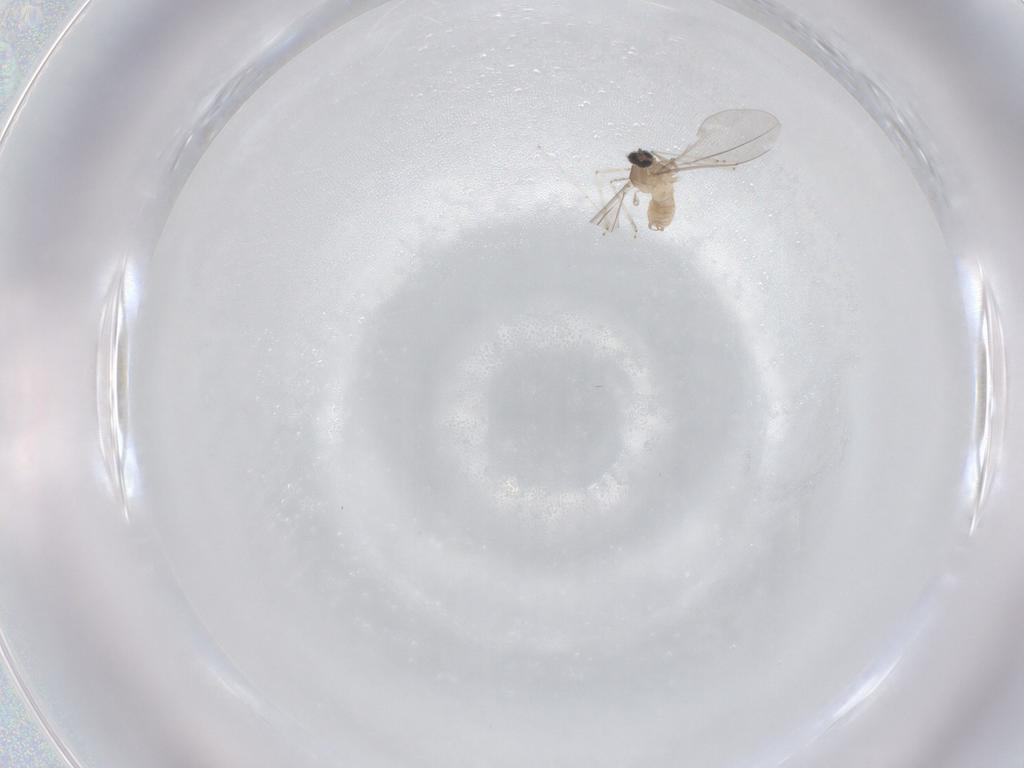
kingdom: Animalia
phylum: Arthropoda
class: Insecta
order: Diptera
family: Cecidomyiidae
